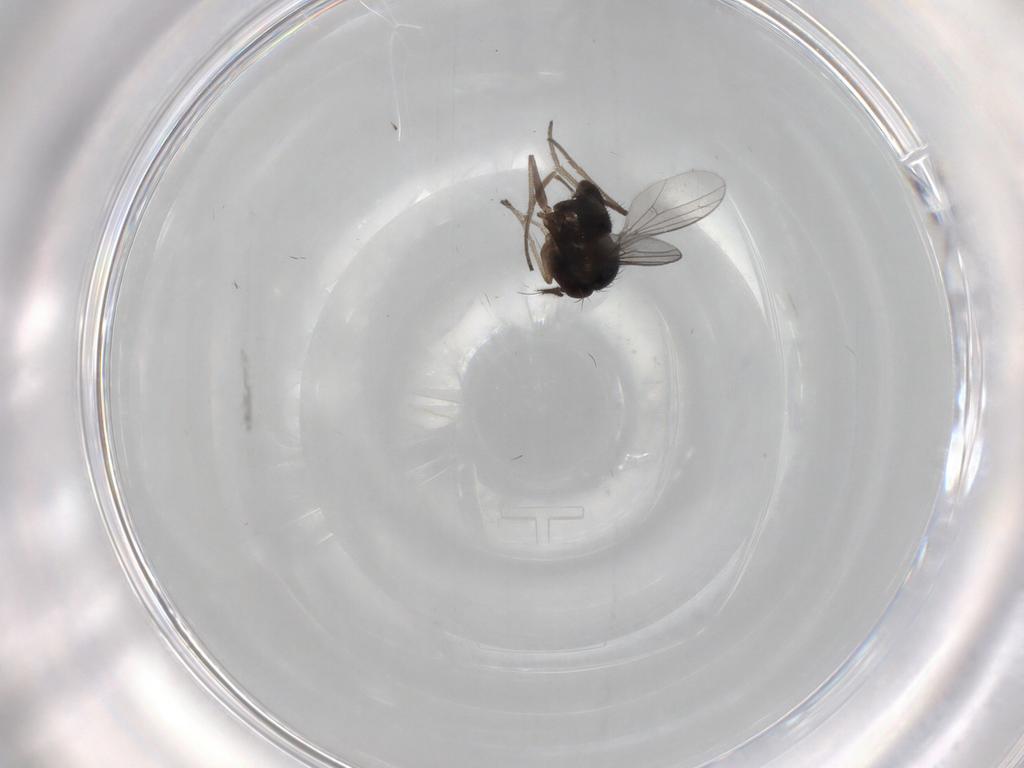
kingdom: Animalia
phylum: Arthropoda
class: Insecta
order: Diptera
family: Dolichopodidae
